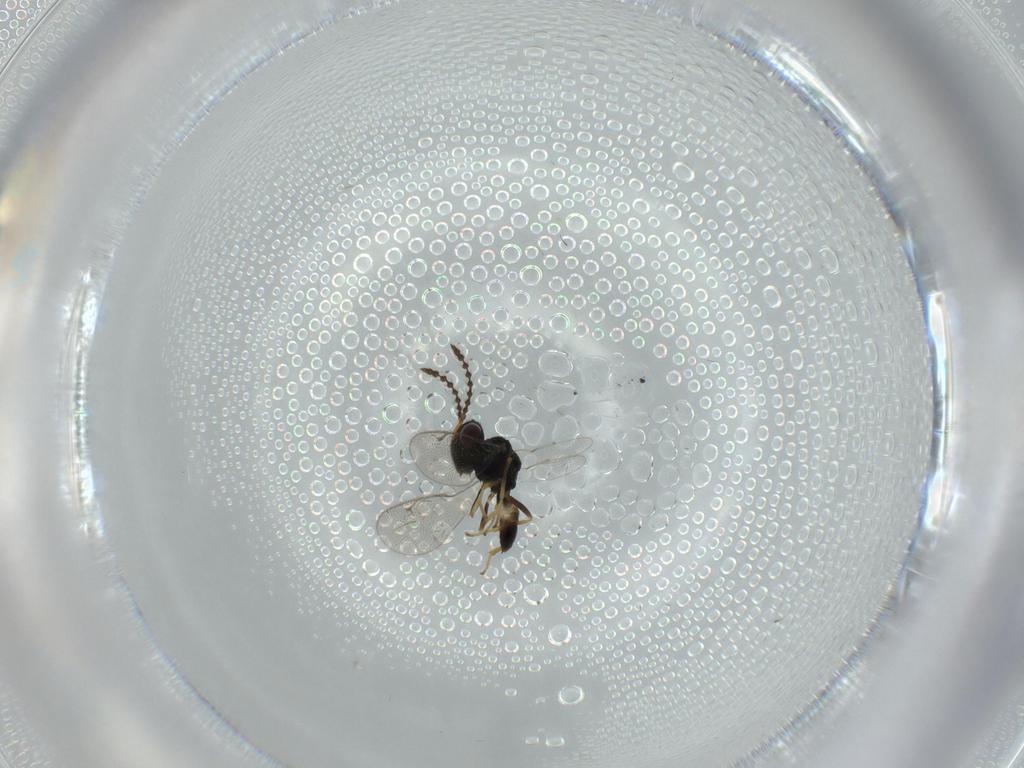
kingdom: Animalia
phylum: Arthropoda
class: Insecta
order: Hymenoptera
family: Pteromalidae
